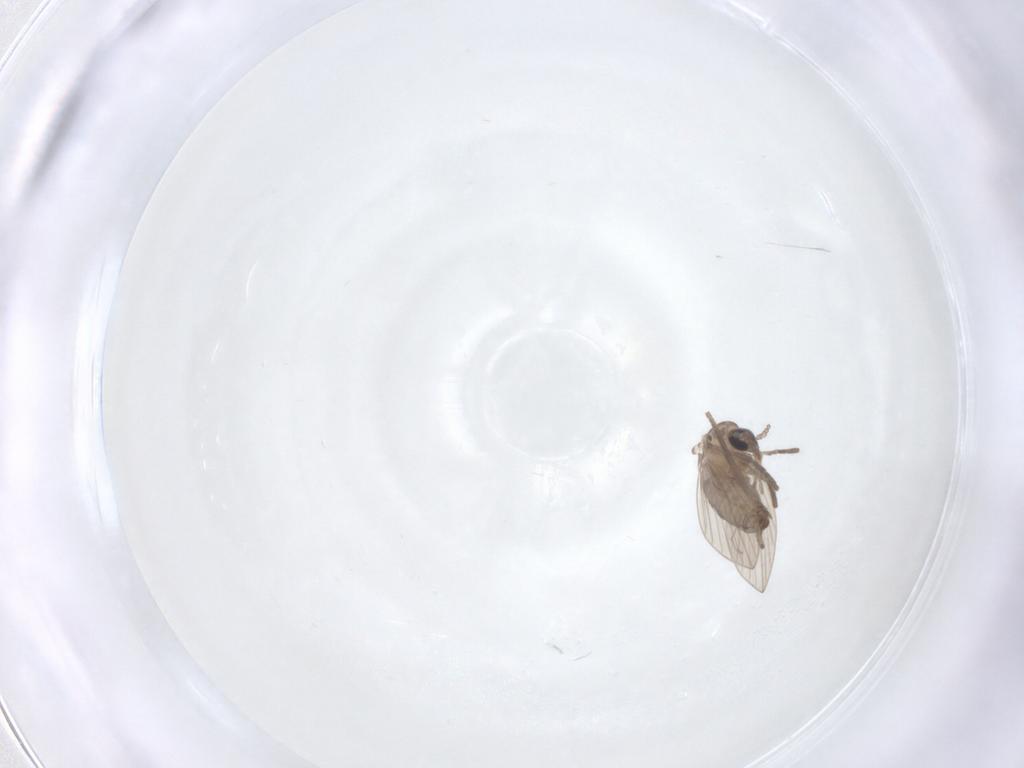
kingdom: Animalia
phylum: Arthropoda
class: Insecta
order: Diptera
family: Psychodidae
